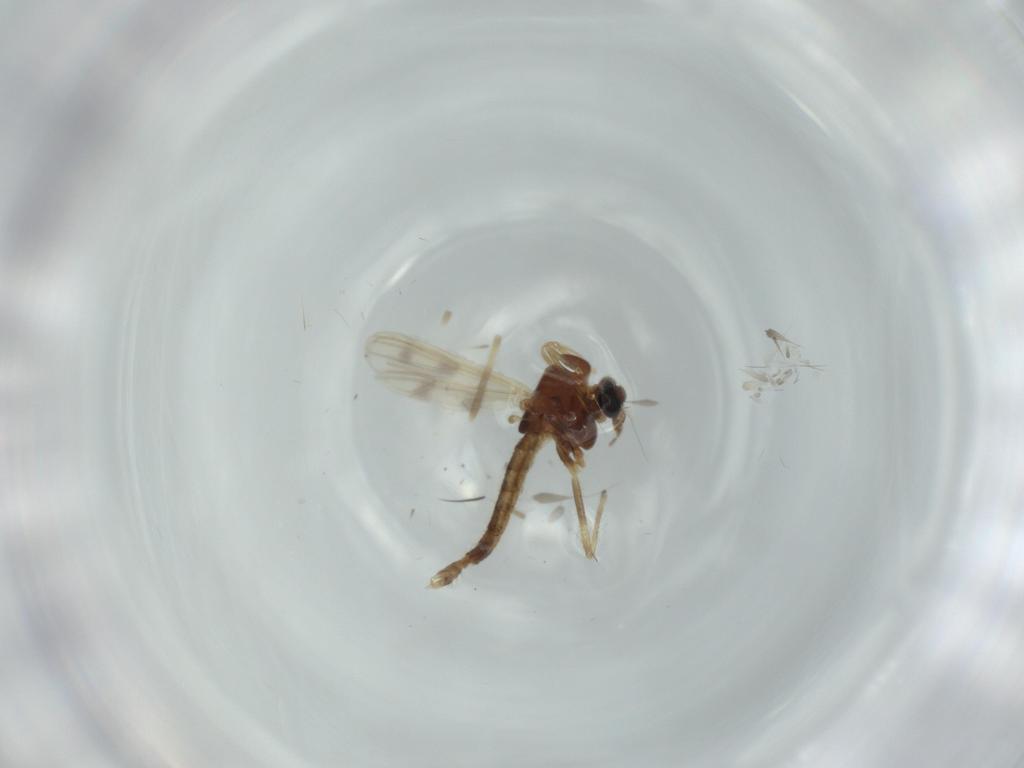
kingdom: Animalia
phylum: Arthropoda
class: Insecta
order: Diptera
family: Chironomidae
